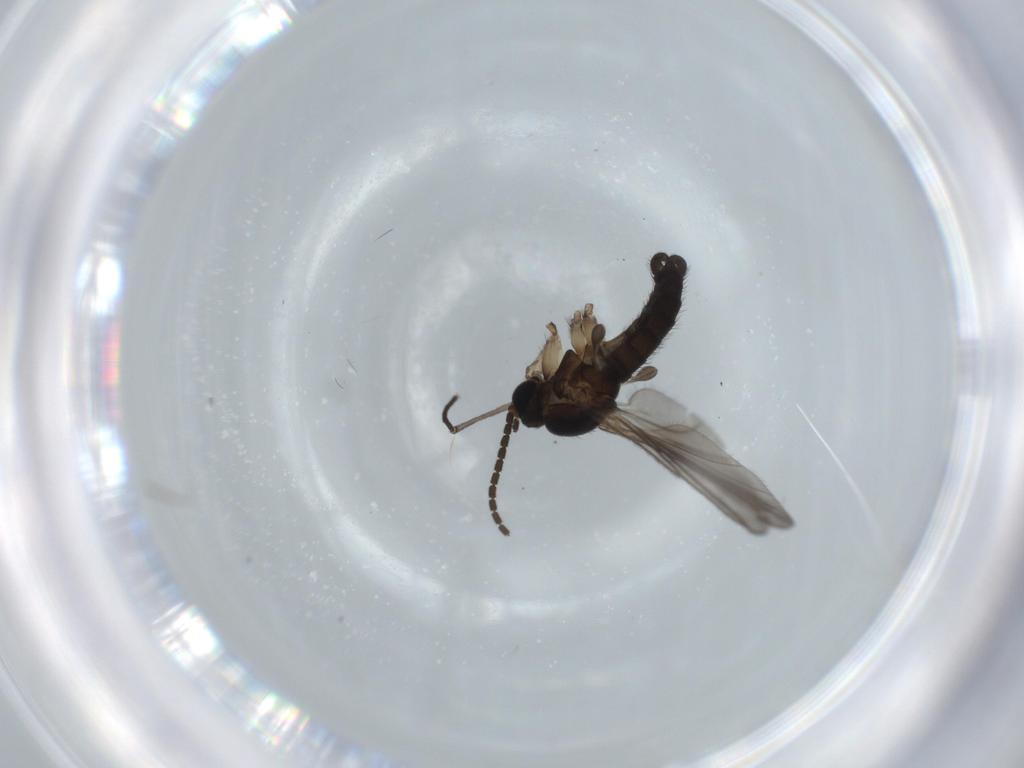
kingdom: Animalia
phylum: Arthropoda
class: Insecta
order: Diptera
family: Sciaridae
